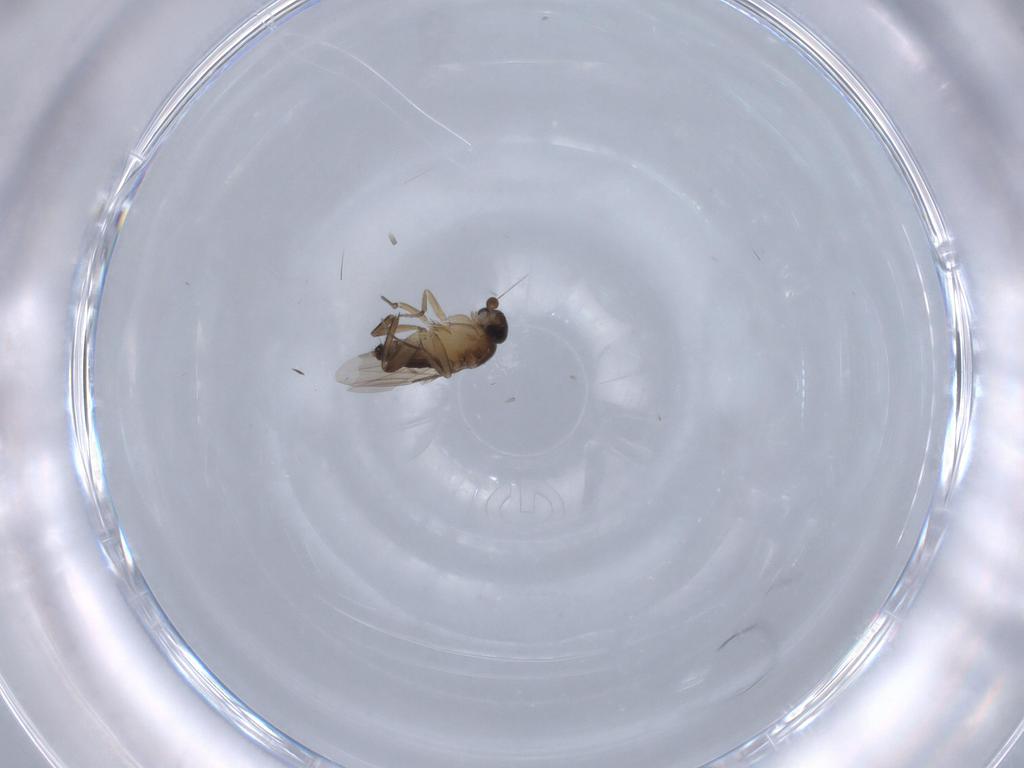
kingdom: Animalia
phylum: Arthropoda
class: Insecta
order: Diptera
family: Phoridae
